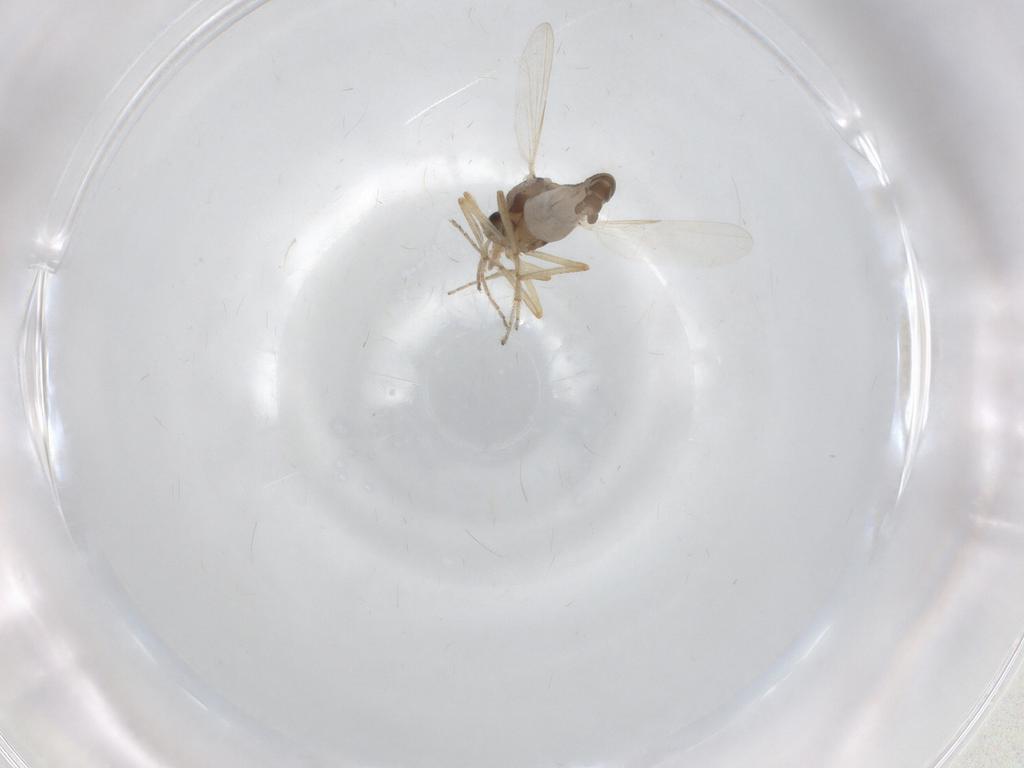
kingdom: Animalia
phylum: Arthropoda
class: Insecta
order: Diptera
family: Ceratopogonidae
